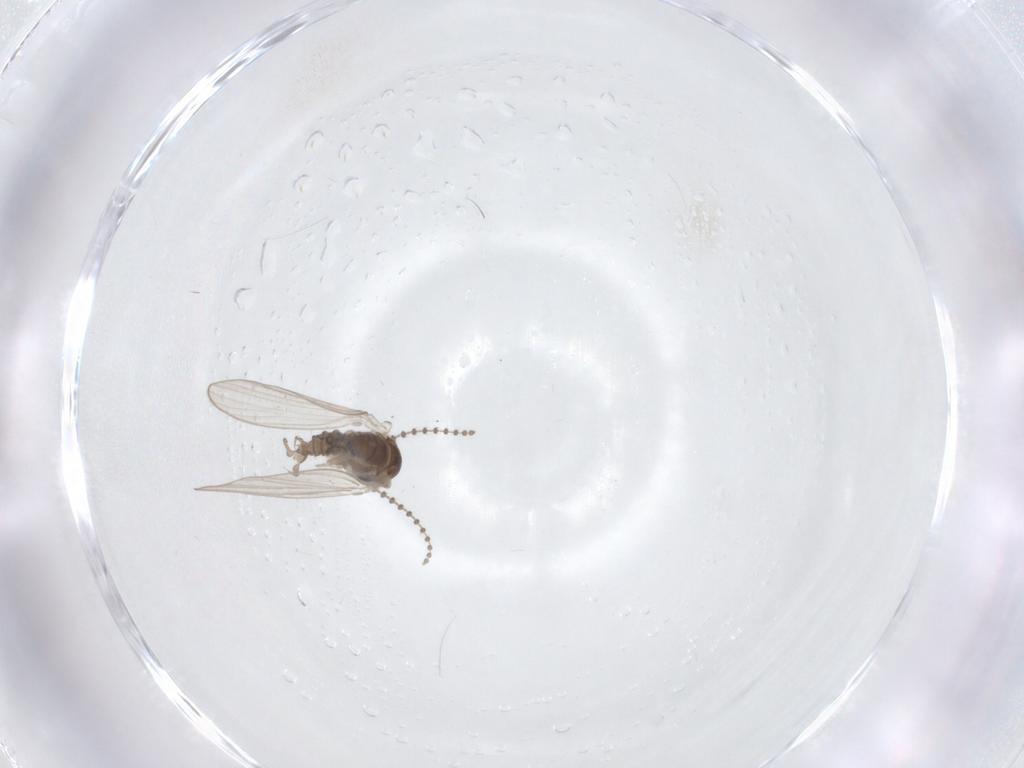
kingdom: Animalia
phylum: Arthropoda
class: Insecta
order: Diptera
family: Psychodidae
